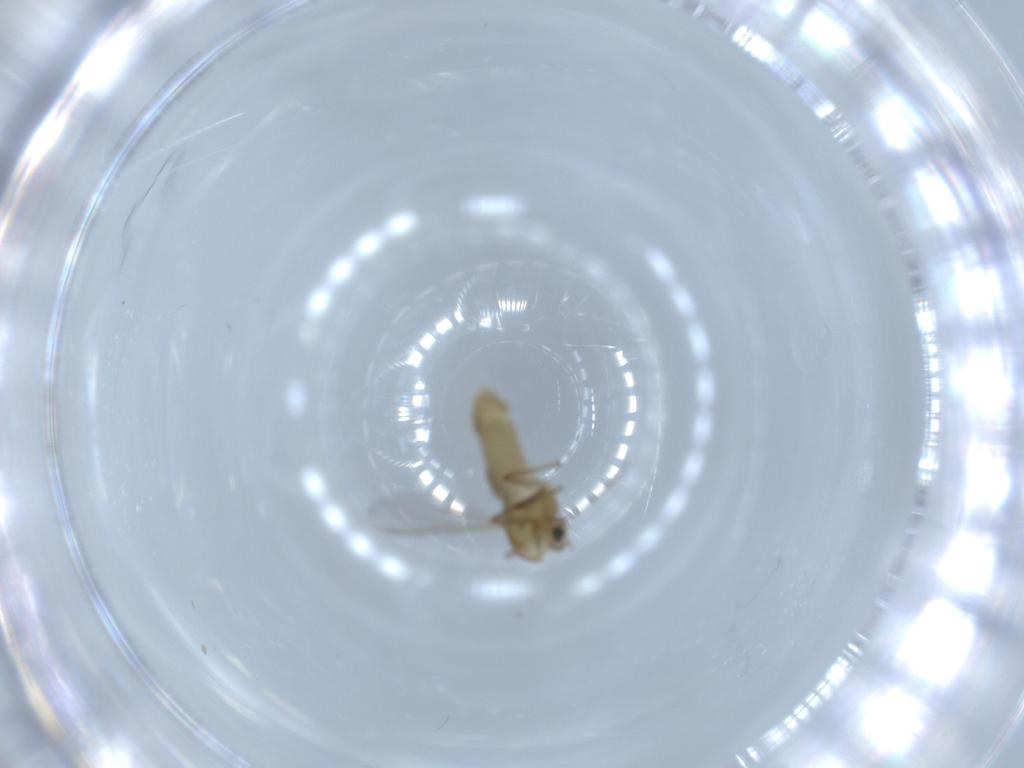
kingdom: Animalia
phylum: Arthropoda
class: Insecta
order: Diptera
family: Chironomidae
